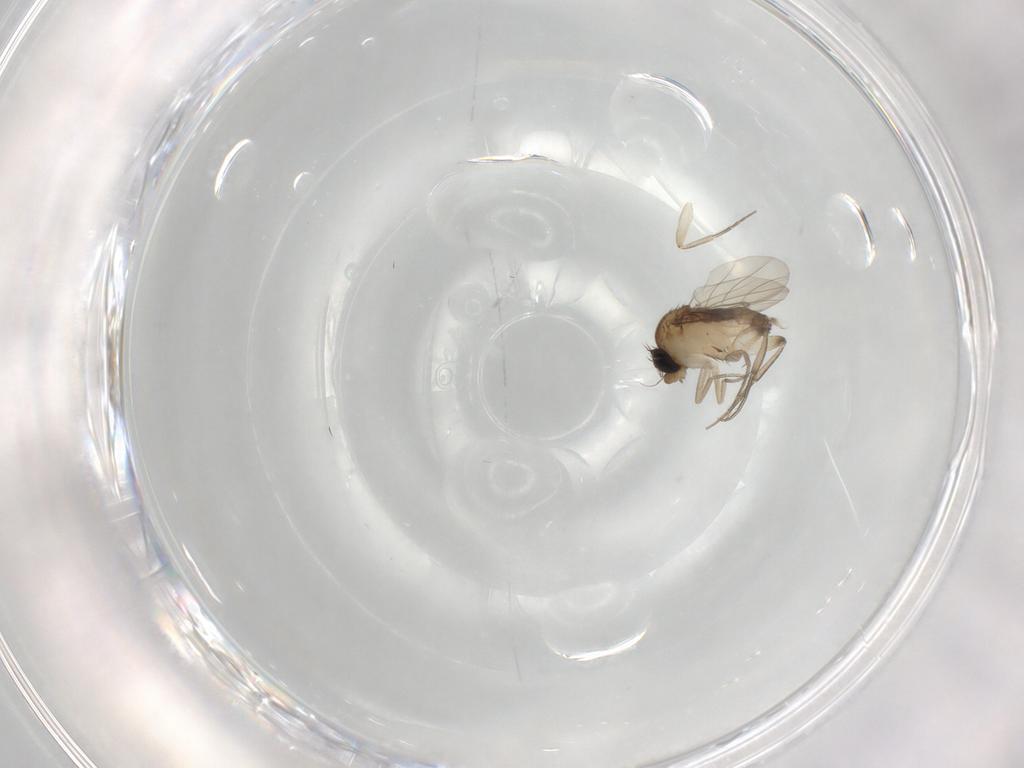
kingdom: Animalia
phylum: Arthropoda
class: Insecta
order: Diptera
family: Phoridae
